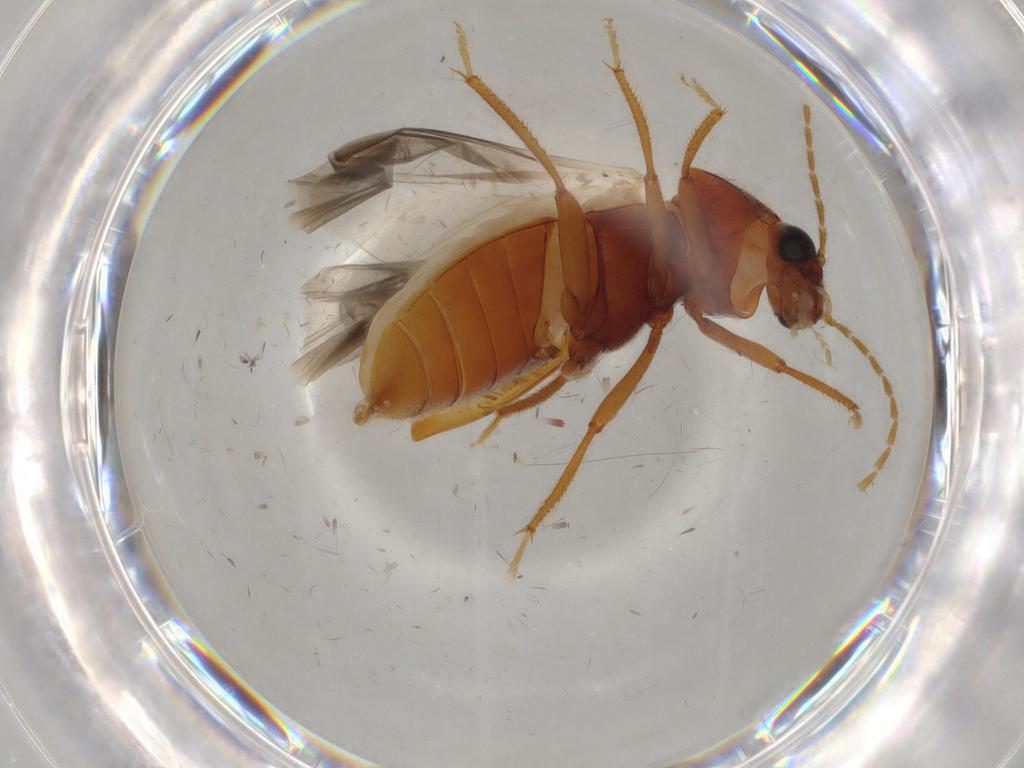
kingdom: Animalia
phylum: Arthropoda
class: Insecta
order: Coleoptera
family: Ptilodactylidae
